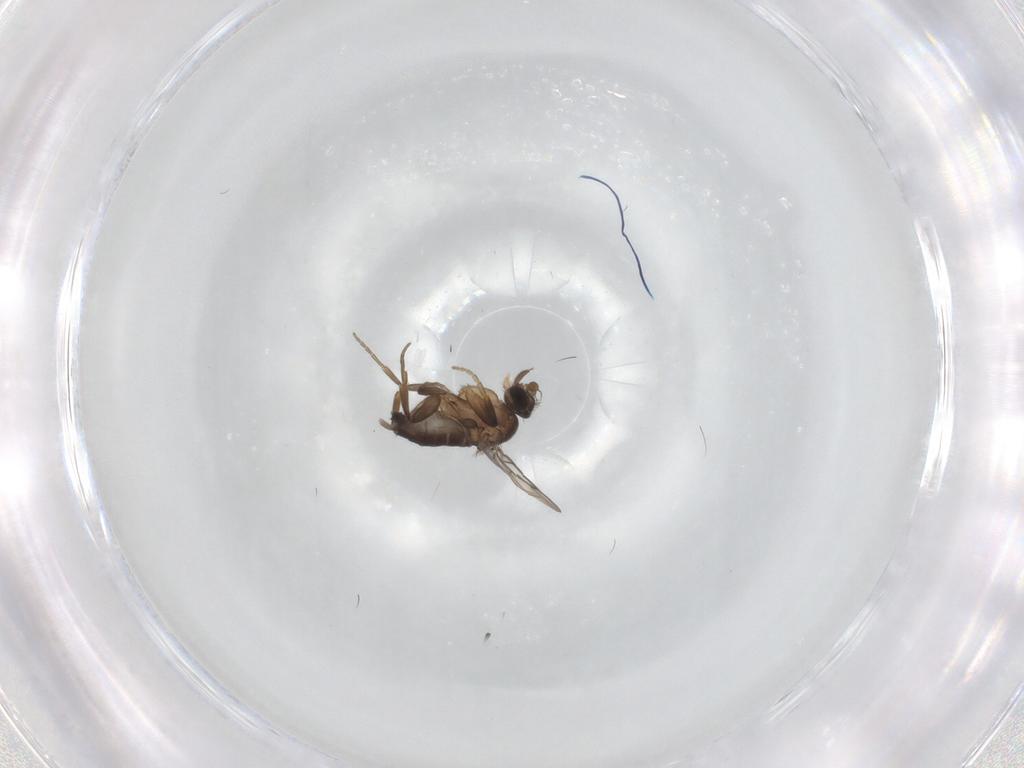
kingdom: Animalia
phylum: Arthropoda
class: Insecta
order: Diptera
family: Phoridae
